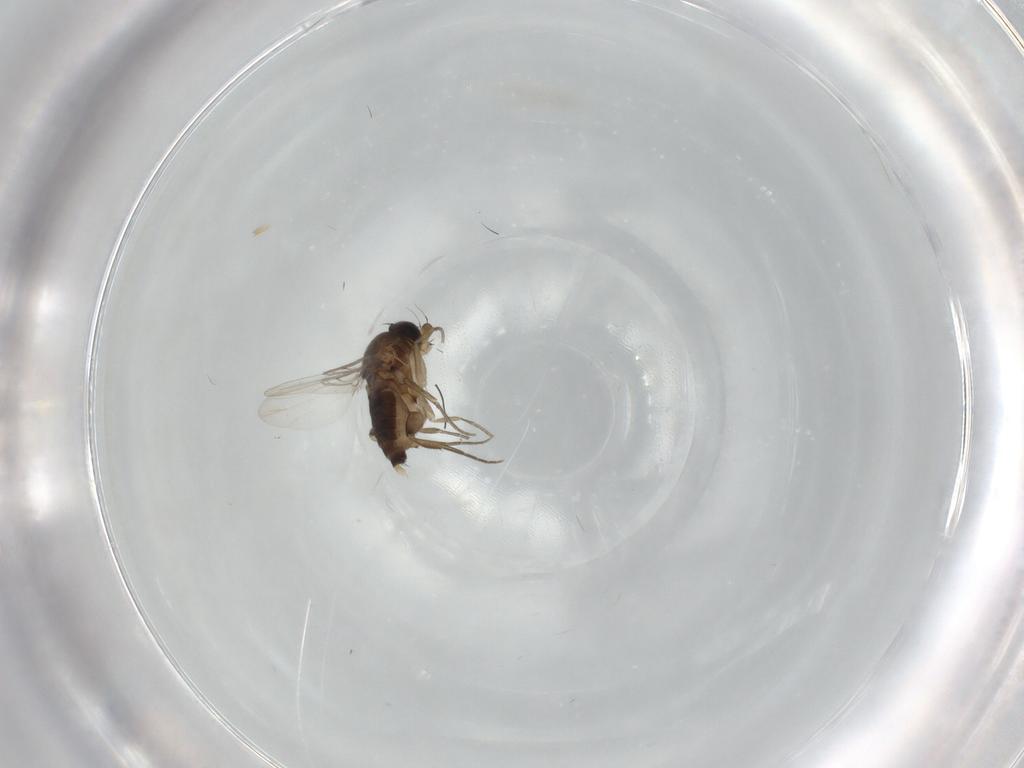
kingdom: Animalia
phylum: Arthropoda
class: Insecta
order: Diptera
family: Phoridae
